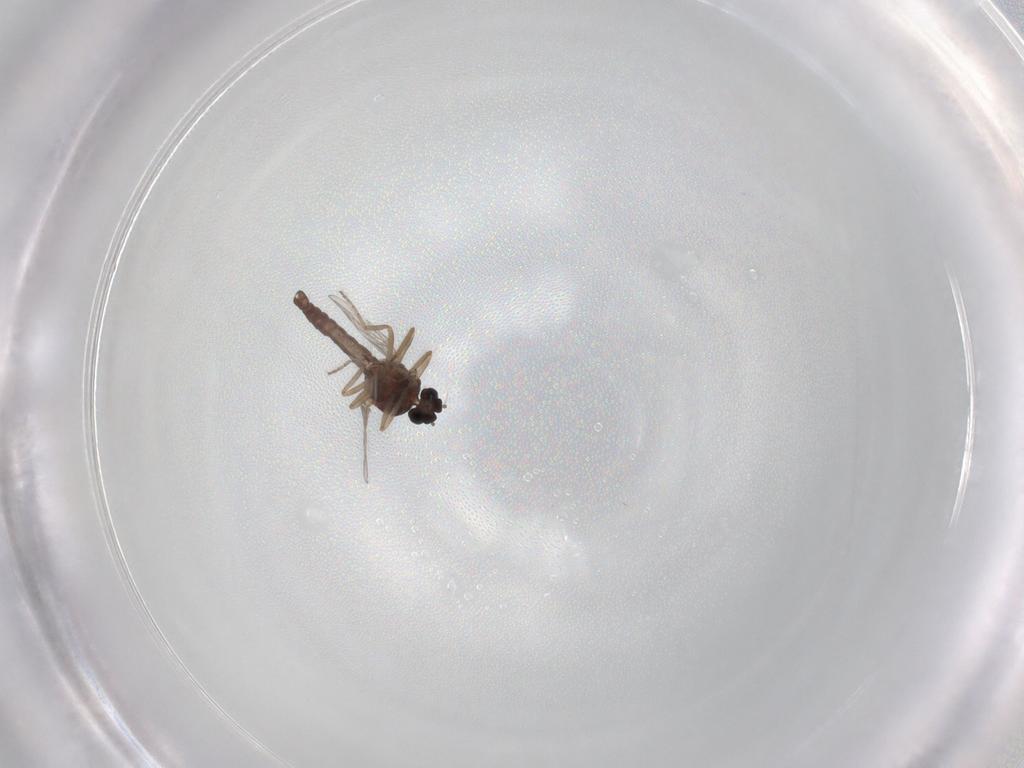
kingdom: Animalia
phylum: Arthropoda
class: Insecta
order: Diptera
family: Ceratopogonidae
